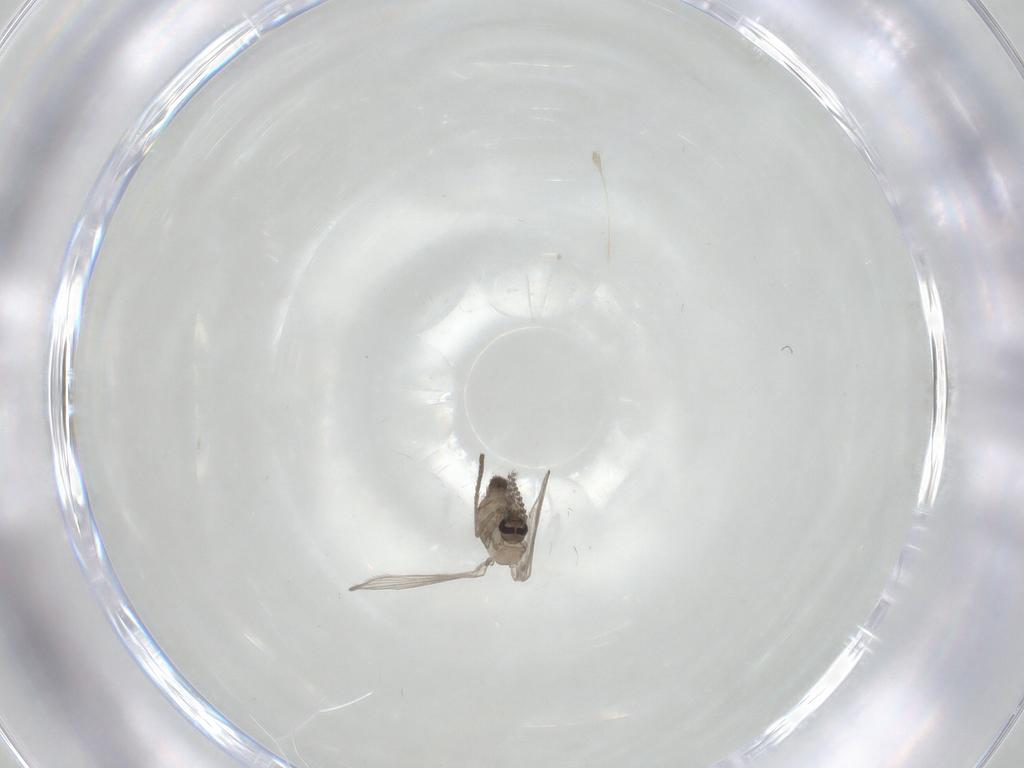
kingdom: Animalia
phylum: Arthropoda
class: Insecta
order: Diptera
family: Psychodidae
